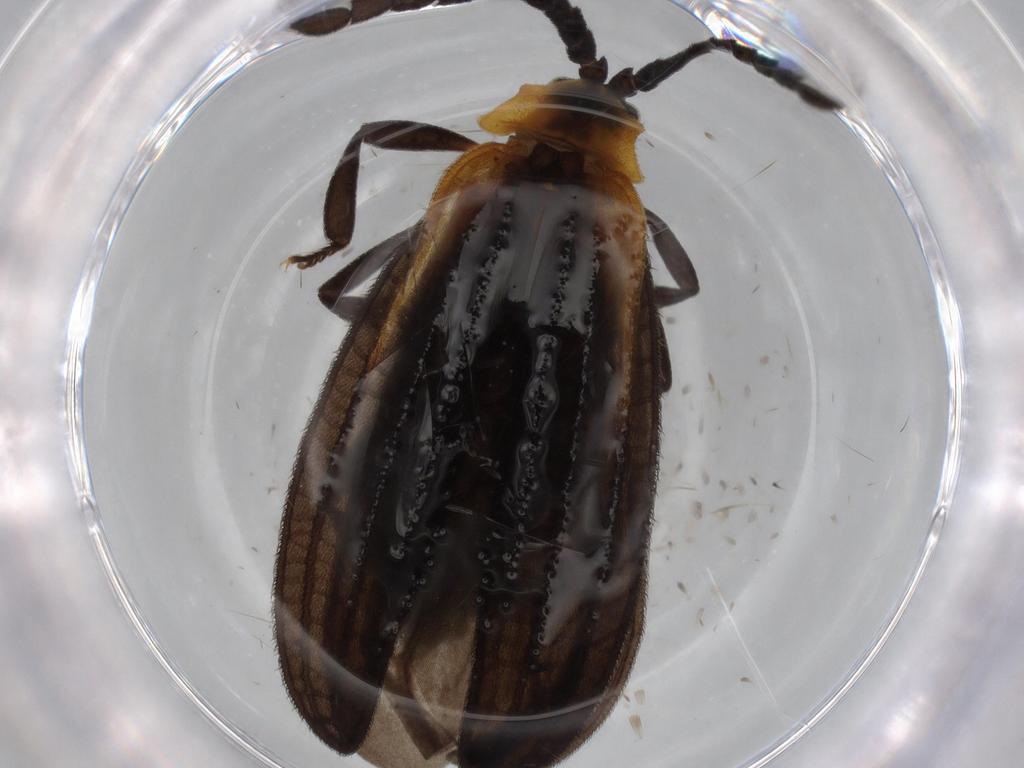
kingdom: Animalia
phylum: Arthropoda
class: Insecta
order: Coleoptera
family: Lycidae
